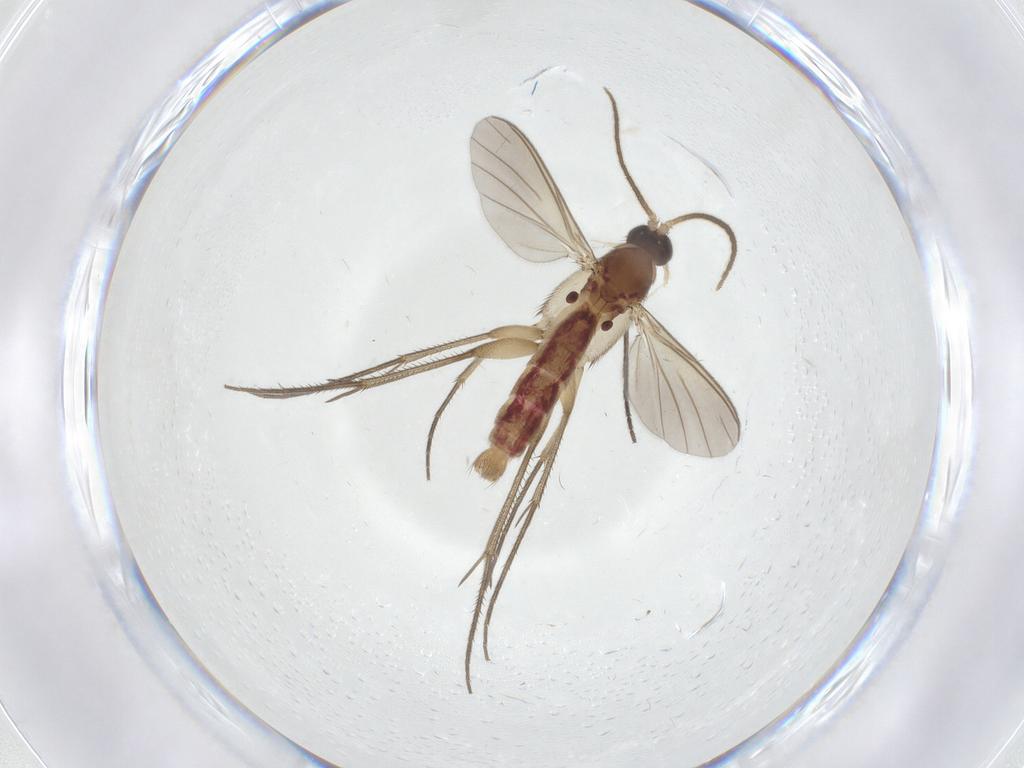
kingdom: Animalia
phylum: Arthropoda
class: Insecta
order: Diptera
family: Mycetophilidae
